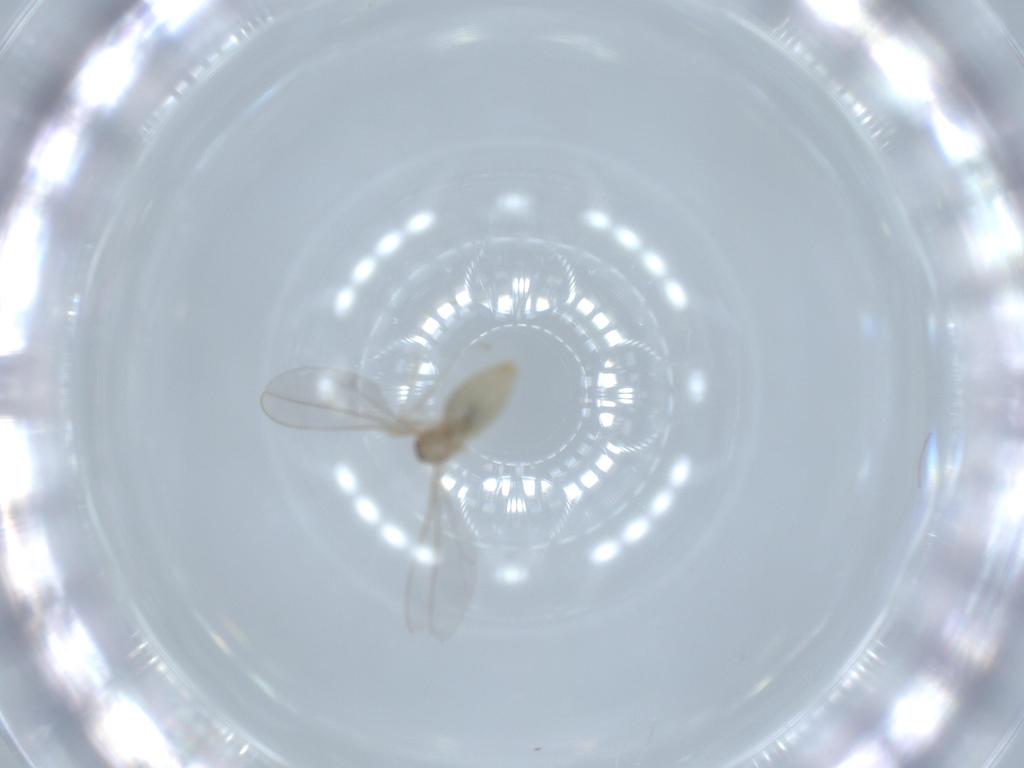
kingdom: Animalia
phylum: Arthropoda
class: Insecta
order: Diptera
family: Cecidomyiidae
